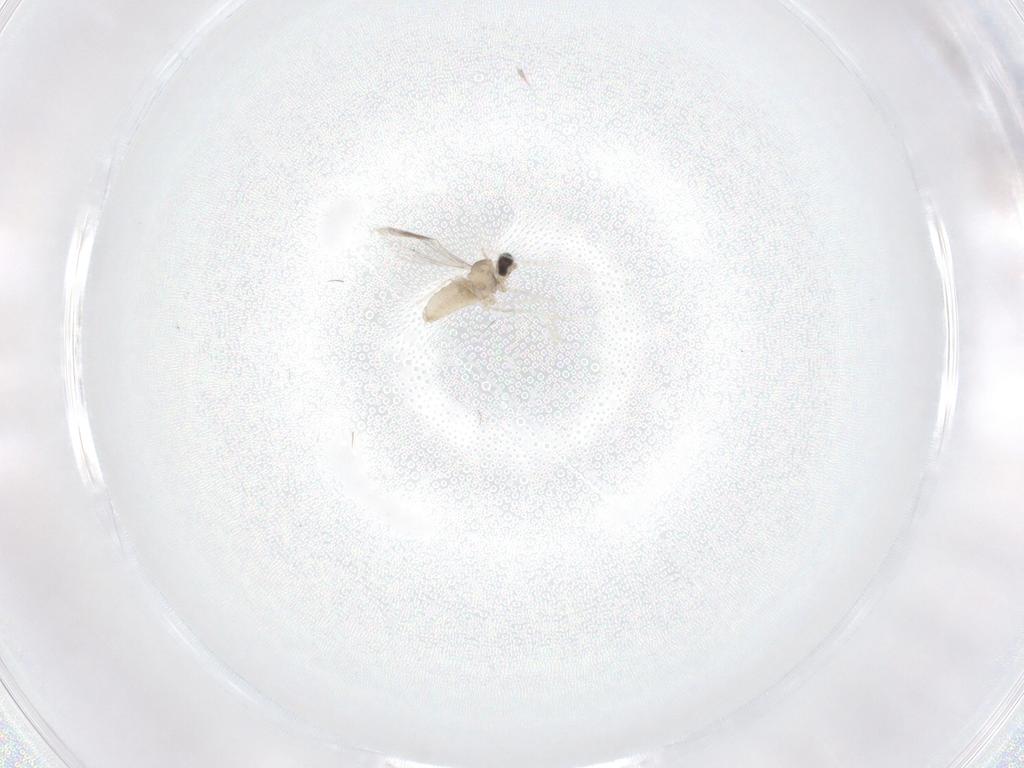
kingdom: Animalia
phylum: Arthropoda
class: Insecta
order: Diptera
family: Cecidomyiidae
